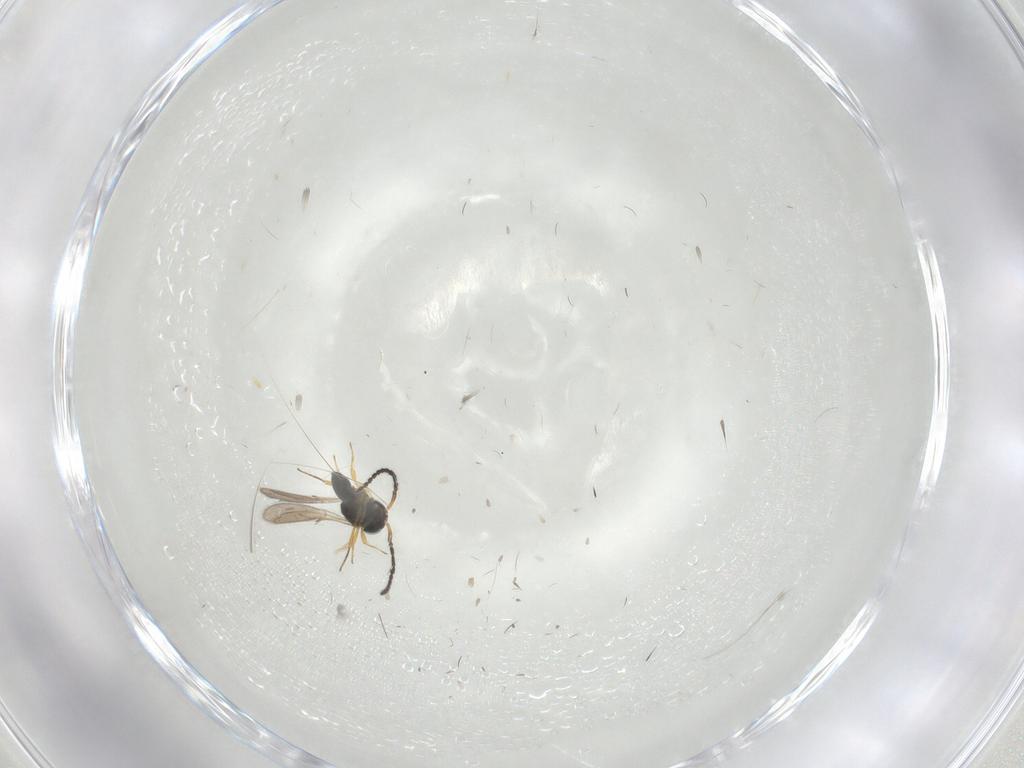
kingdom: Animalia
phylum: Arthropoda
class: Insecta
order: Hymenoptera
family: Scelionidae
